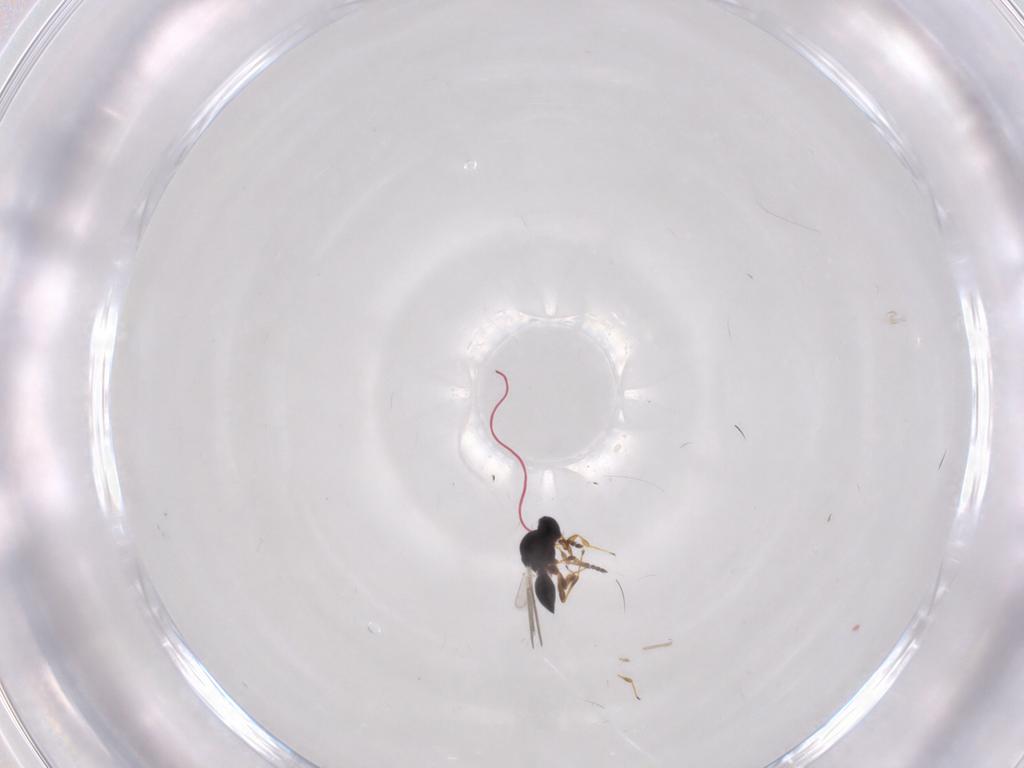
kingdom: Animalia
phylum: Arthropoda
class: Insecta
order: Hymenoptera
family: Platygastridae
